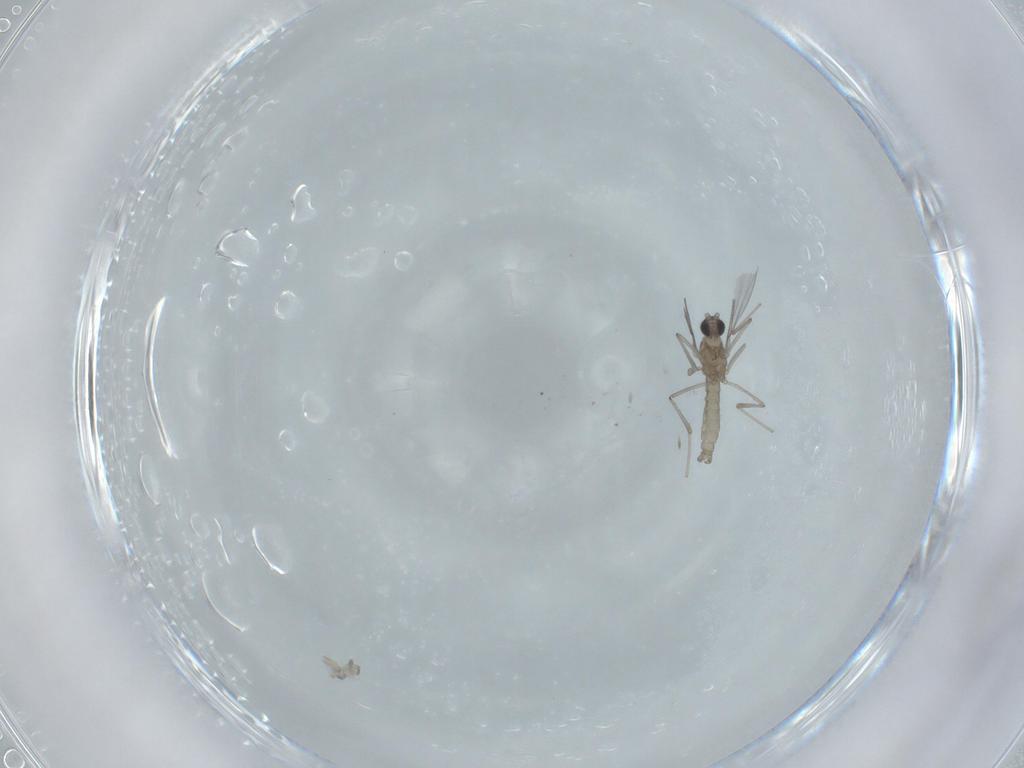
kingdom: Animalia
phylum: Arthropoda
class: Insecta
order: Diptera
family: Cecidomyiidae
